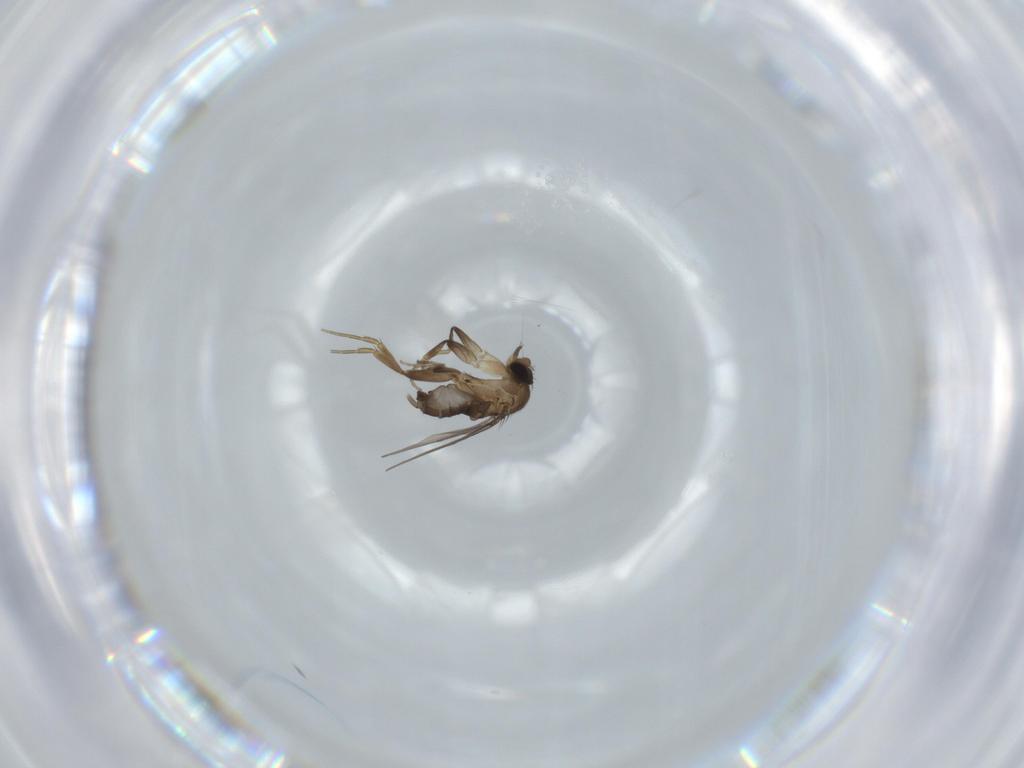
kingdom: Animalia
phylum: Arthropoda
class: Insecta
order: Diptera
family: Phoridae
